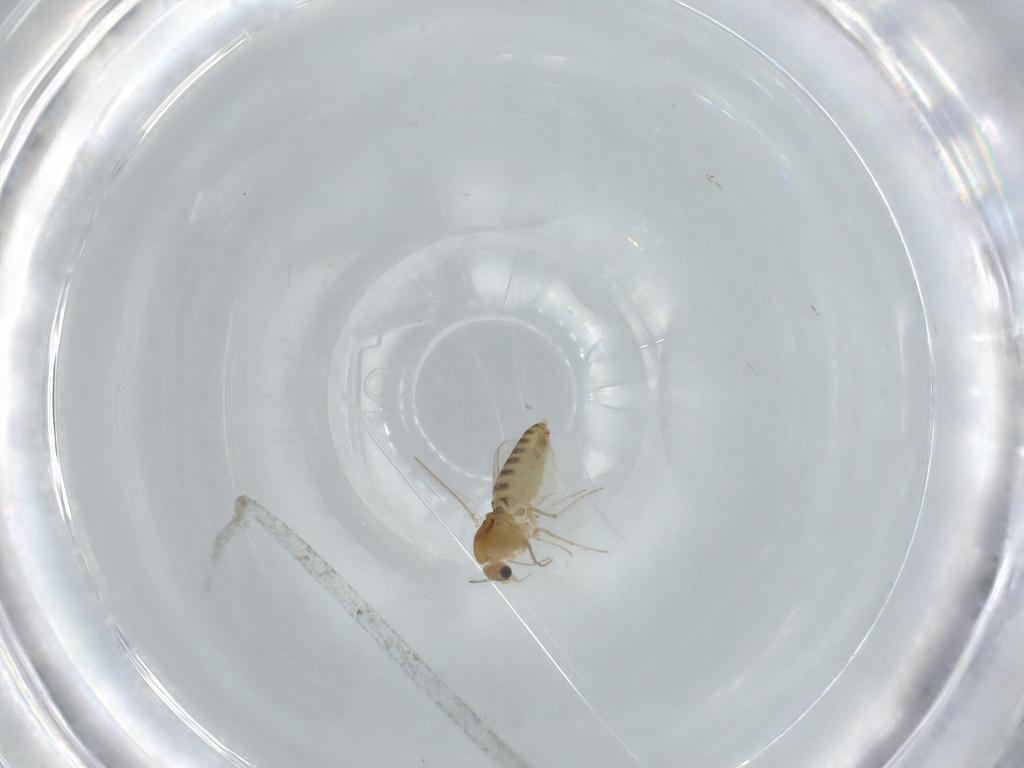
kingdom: Animalia
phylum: Arthropoda
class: Insecta
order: Diptera
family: Chironomidae
